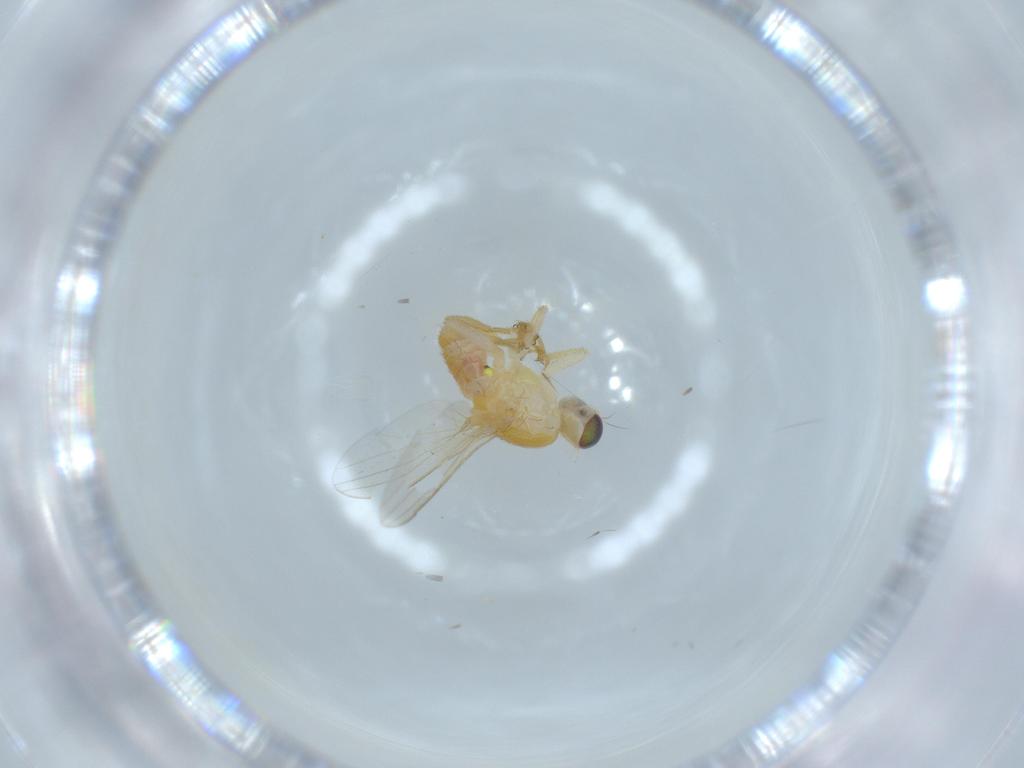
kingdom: Animalia
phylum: Arthropoda
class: Insecta
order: Diptera
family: Chyromyidae
